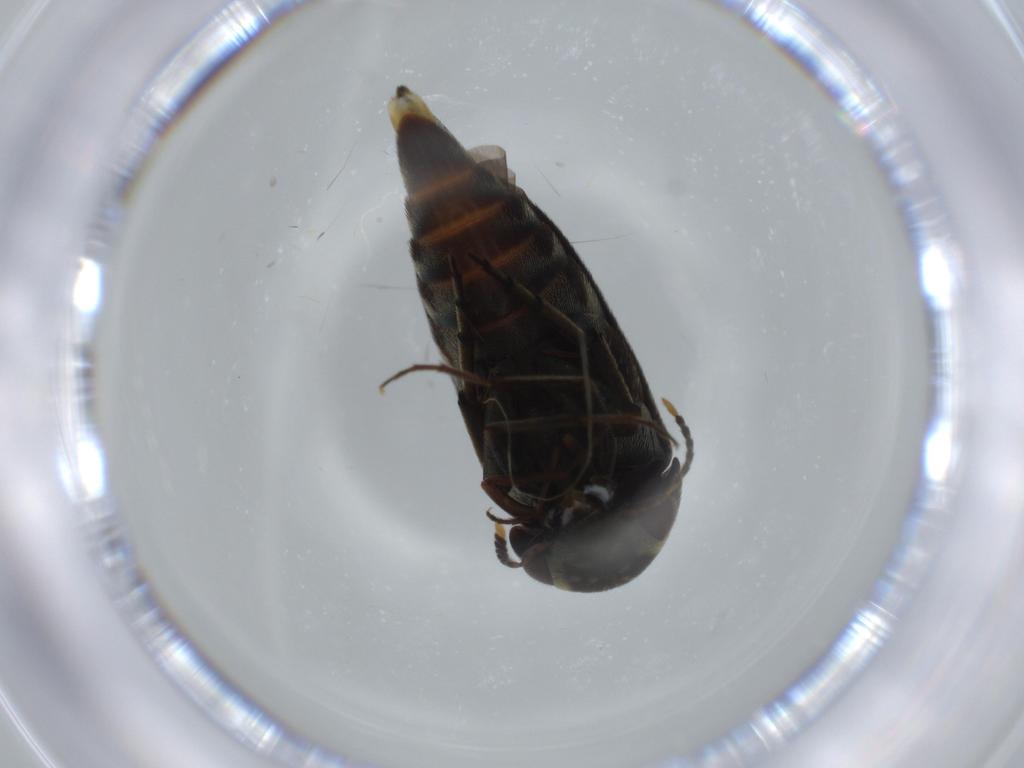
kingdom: Animalia
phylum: Arthropoda
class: Insecta
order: Coleoptera
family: Mordellidae
